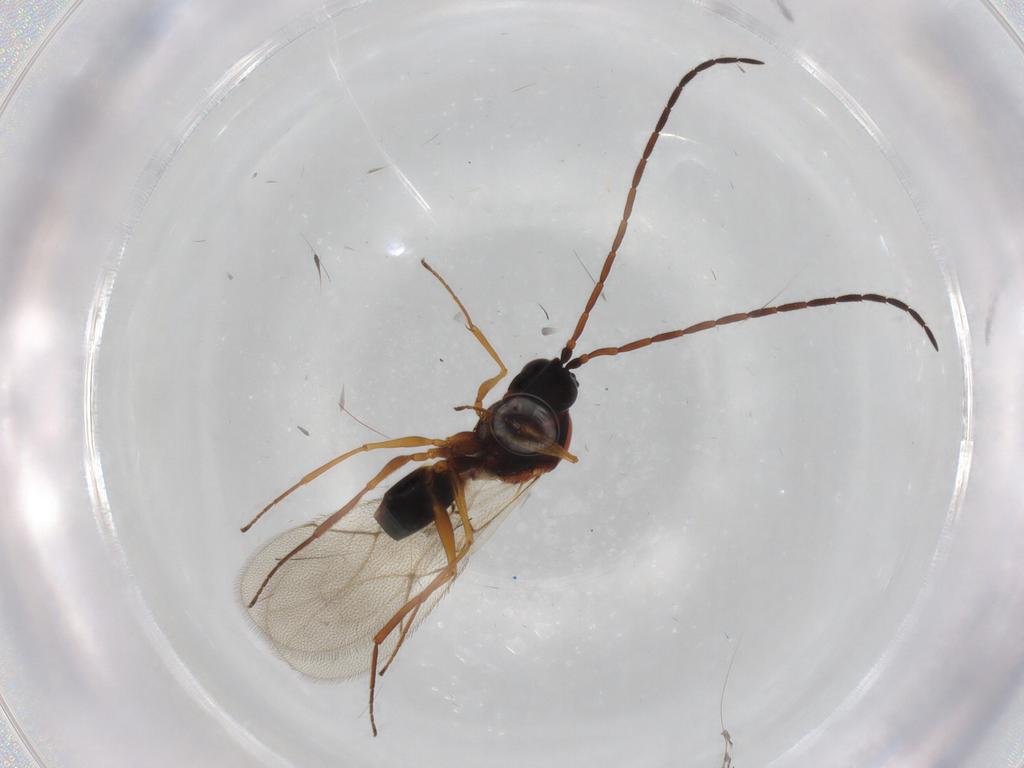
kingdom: Animalia
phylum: Arthropoda
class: Insecta
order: Hymenoptera
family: Figitidae
